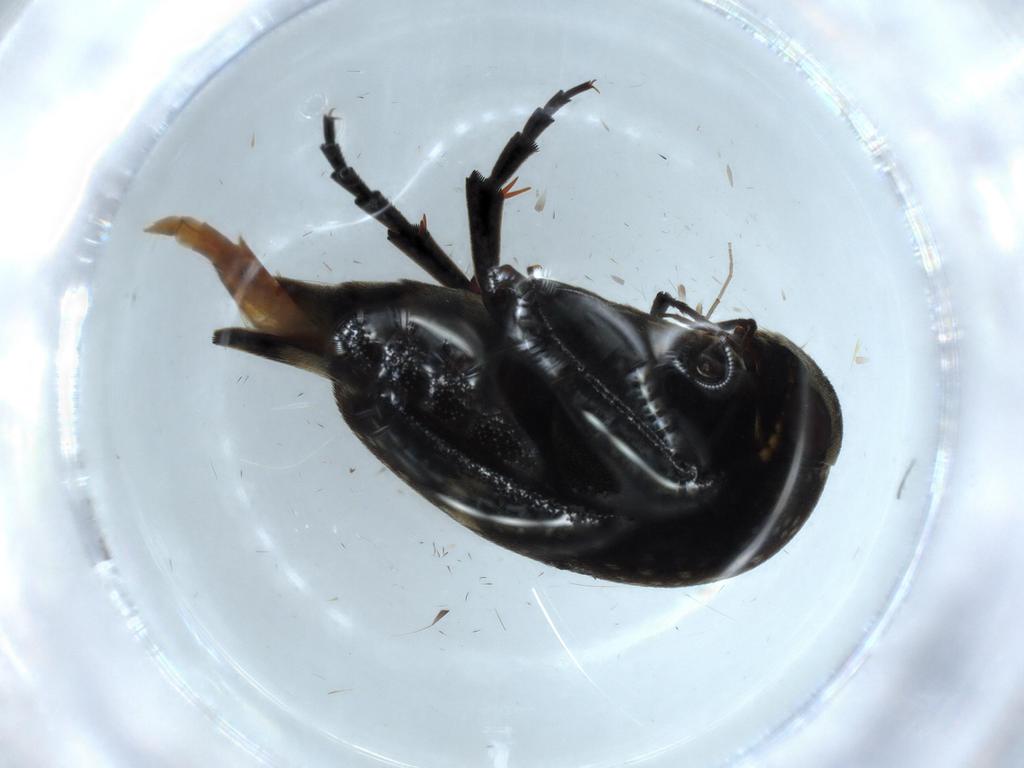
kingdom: Animalia
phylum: Arthropoda
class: Insecta
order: Coleoptera
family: Mordellidae
